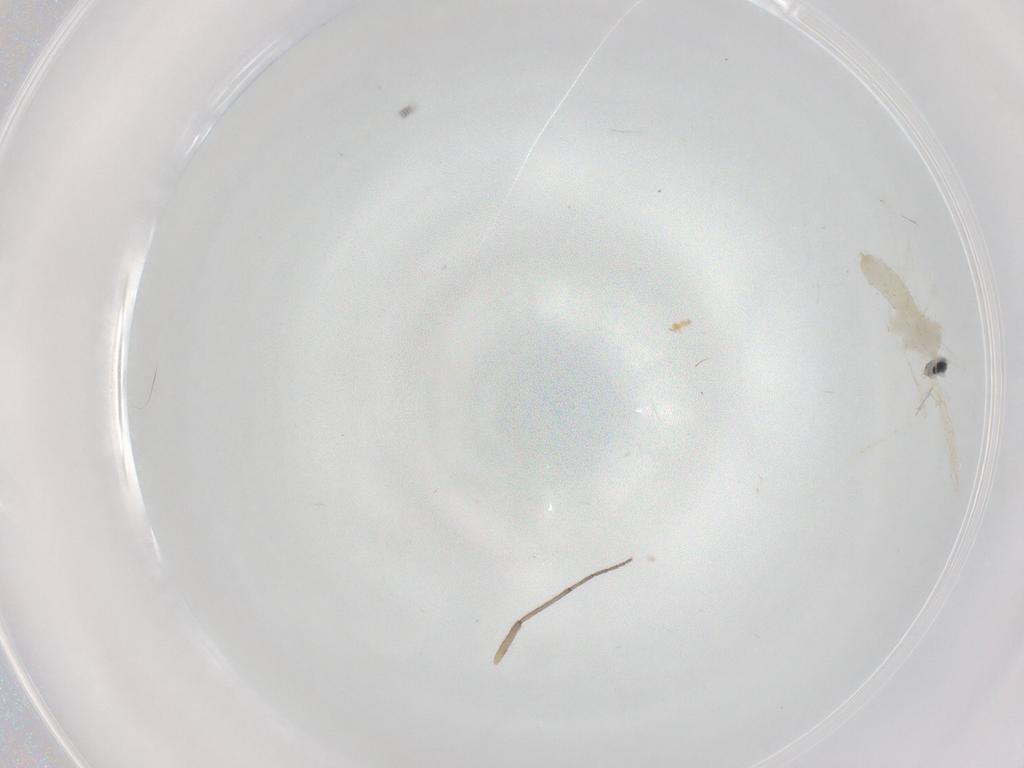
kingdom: Animalia
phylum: Arthropoda
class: Insecta
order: Diptera
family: Cecidomyiidae
